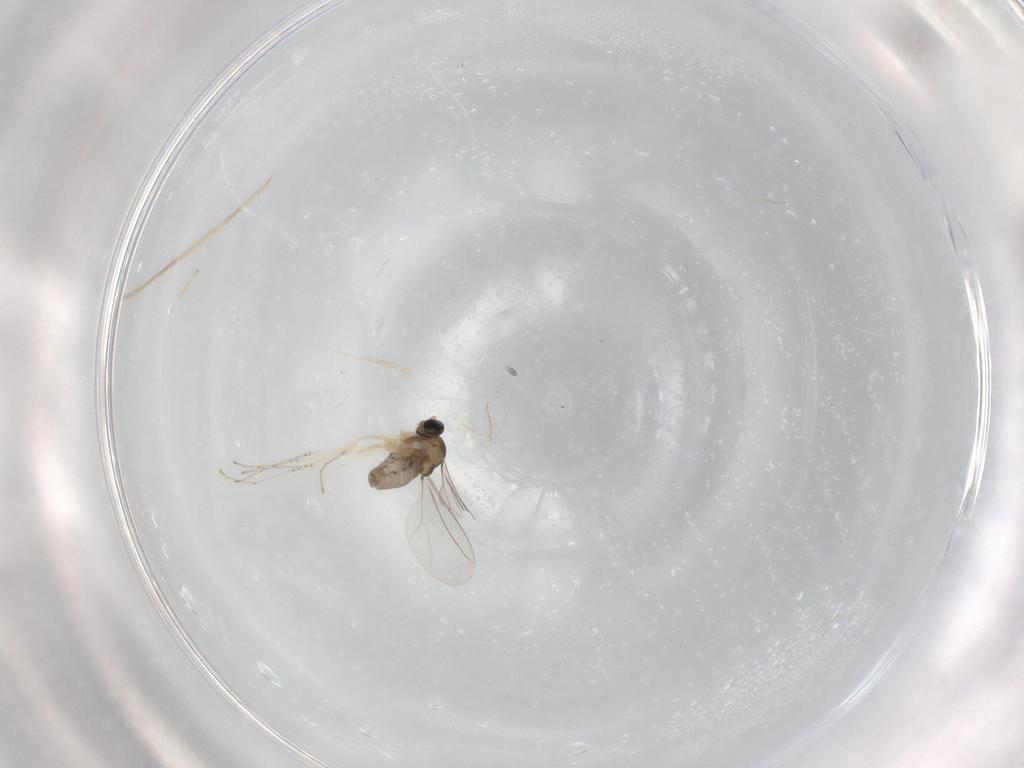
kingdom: Animalia
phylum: Arthropoda
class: Insecta
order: Diptera
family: Cecidomyiidae
